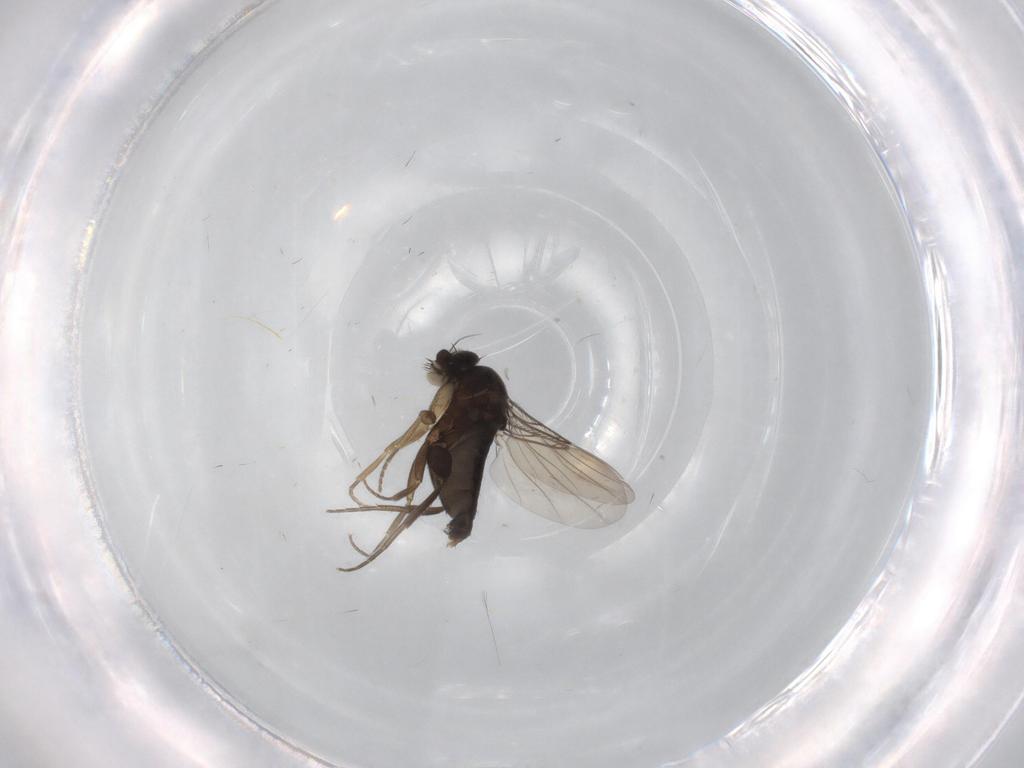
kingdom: Animalia
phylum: Arthropoda
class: Insecta
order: Diptera
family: Phoridae
